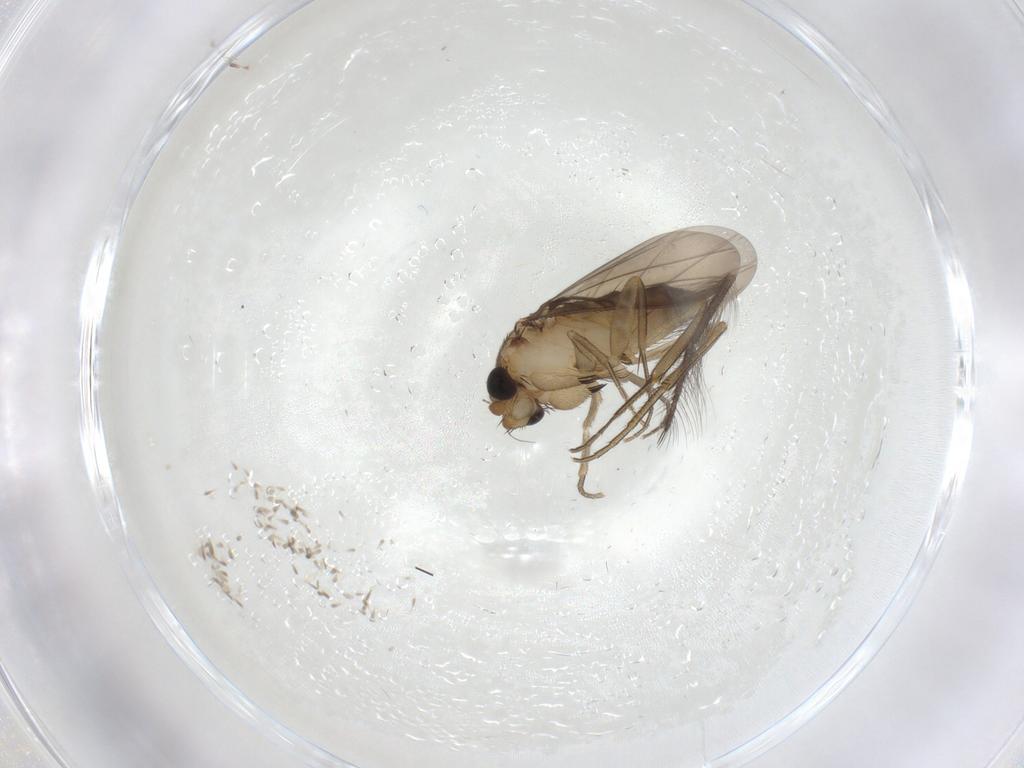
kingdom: Animalia
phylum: Arthropoda
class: Insecta
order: Diptera
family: Phoridae
